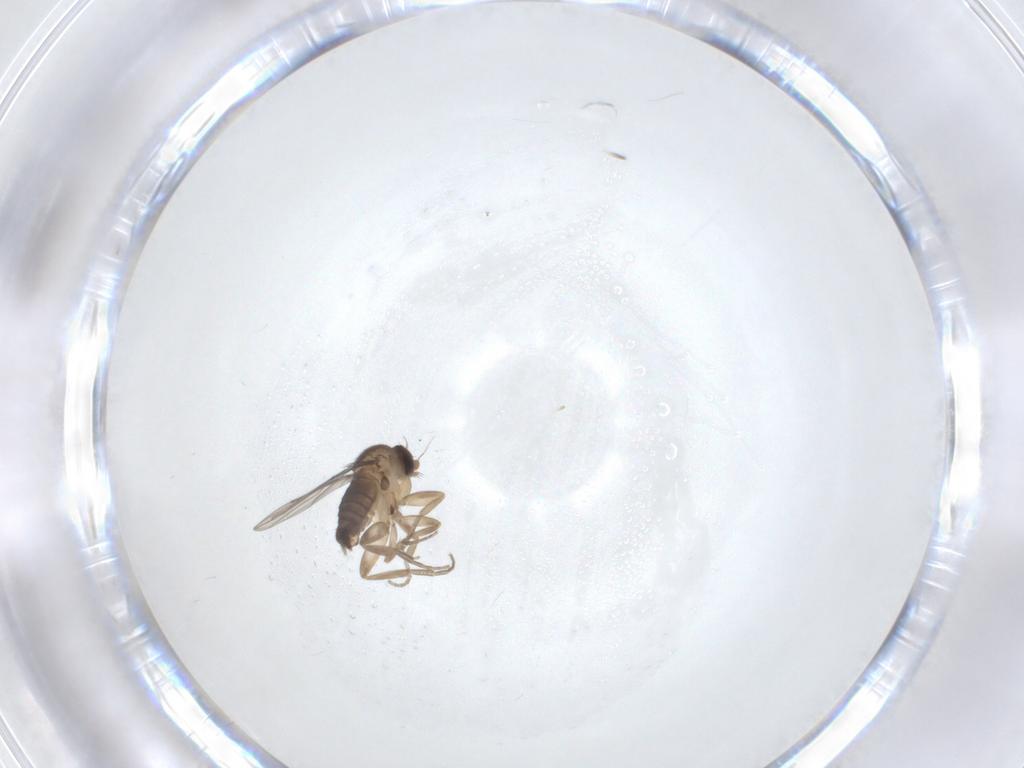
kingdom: Animalia
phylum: Arthropoda
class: Insecta
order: Diptera
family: Phoridae
